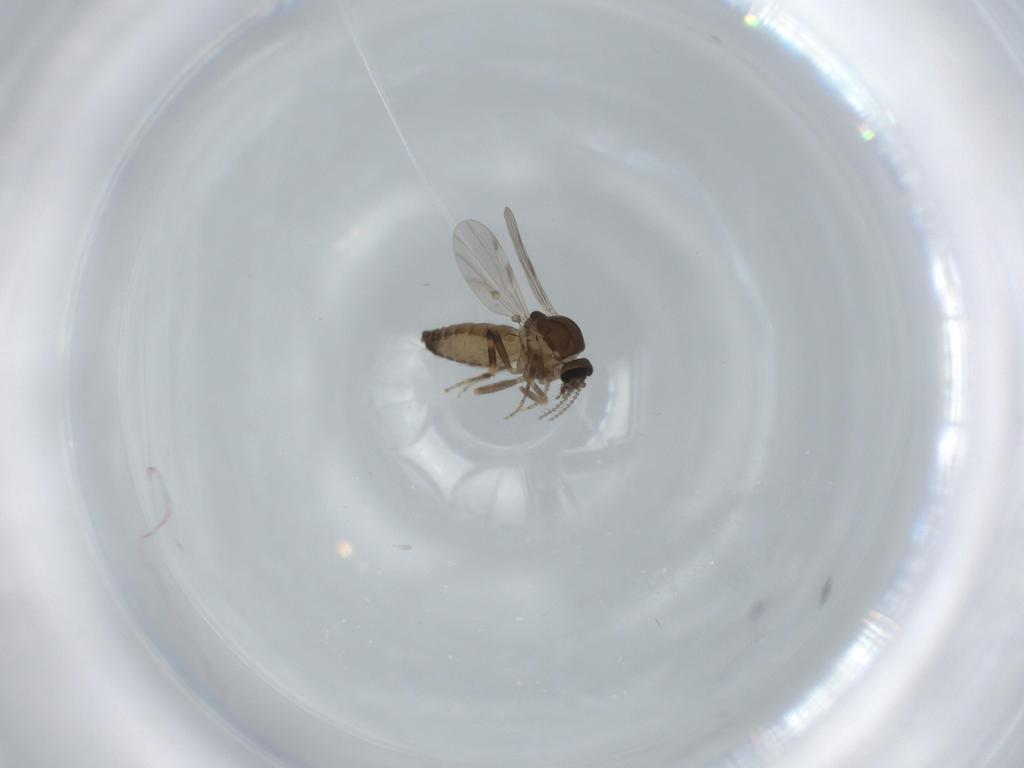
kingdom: Animalia
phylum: Arthropoda
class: Insecta
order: Diptera
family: Ceratopogonidae
